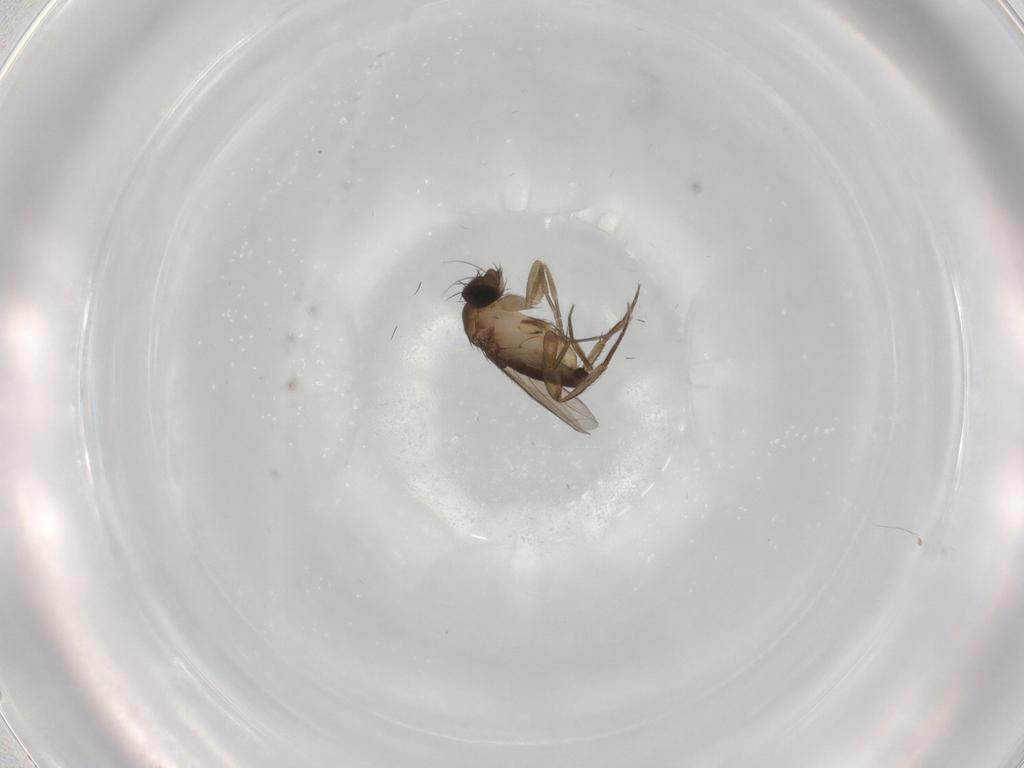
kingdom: Animalia
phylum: Arthropoda
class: Insecta
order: Diptera
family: Phoridae
